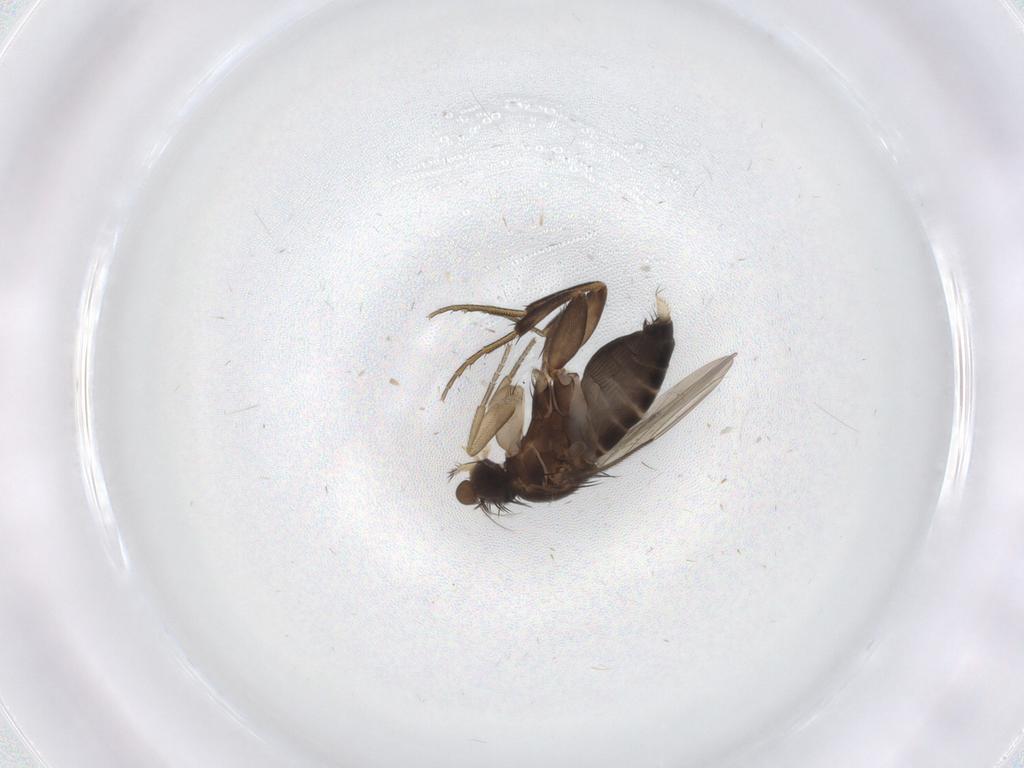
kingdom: Animalia
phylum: Arthropoda
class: Insecta
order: Diptera
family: Phoridae
